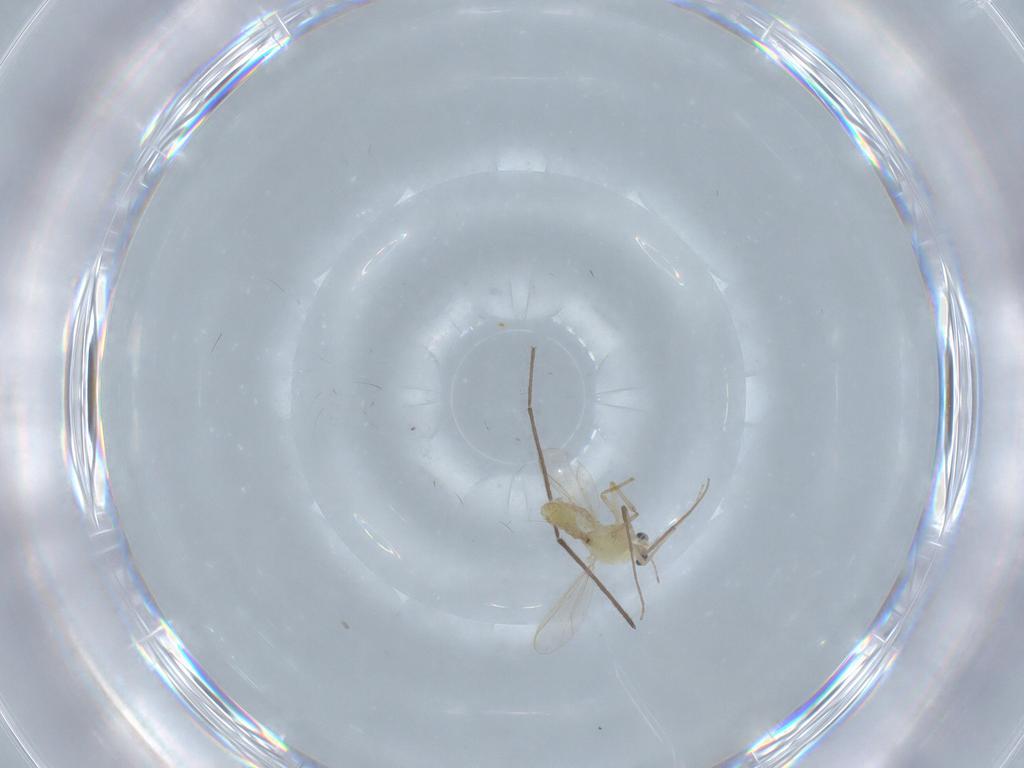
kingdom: Animalia
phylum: Arthropoda
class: Insecta
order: Diptera
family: Chironomidae
